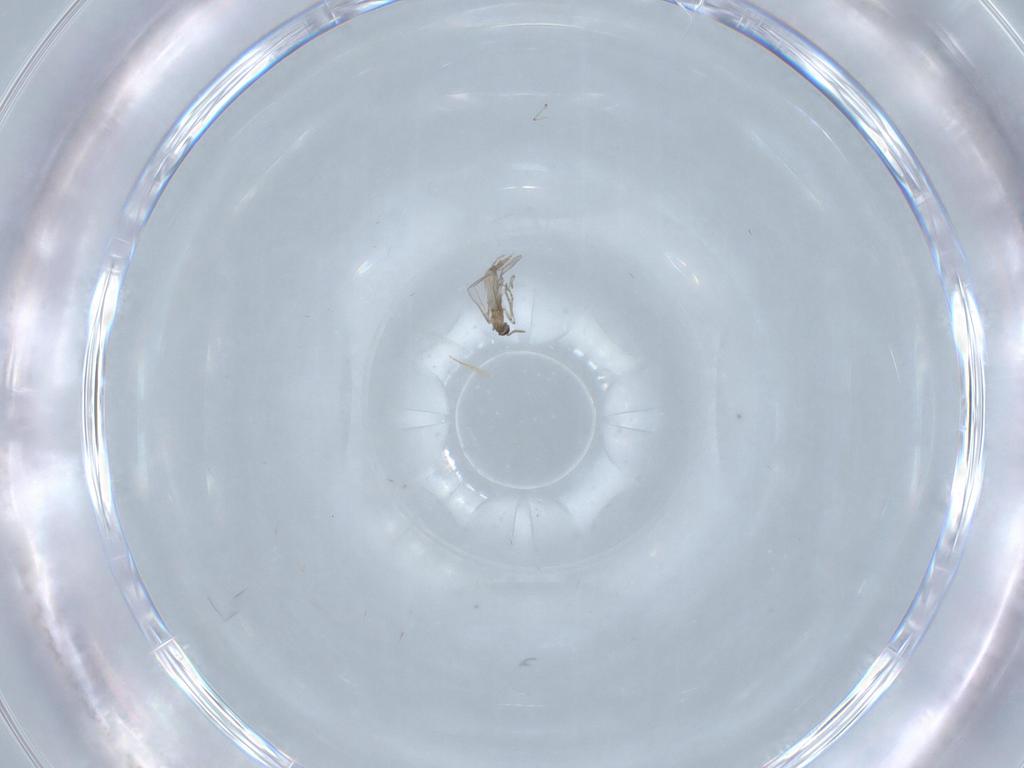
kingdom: Animalia
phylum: Arthropoda
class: Insecta
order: Diptera
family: Cecidomyiidae
